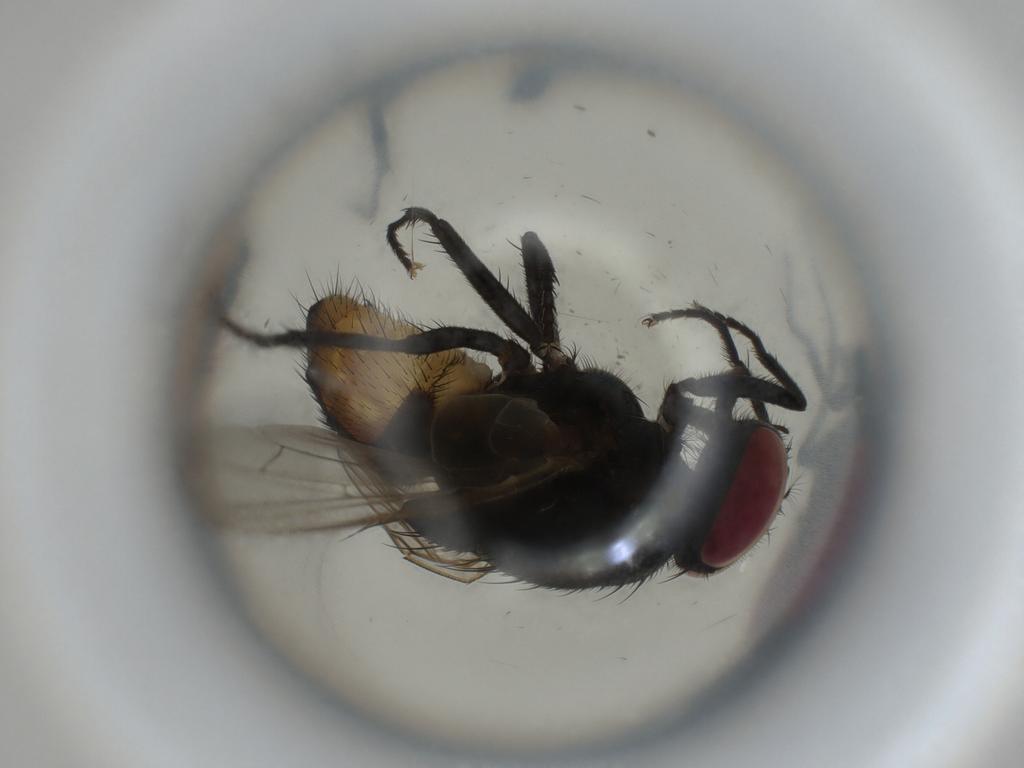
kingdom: Animalia
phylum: Arthropoda
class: Insecta
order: Diptera
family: Muscidae
